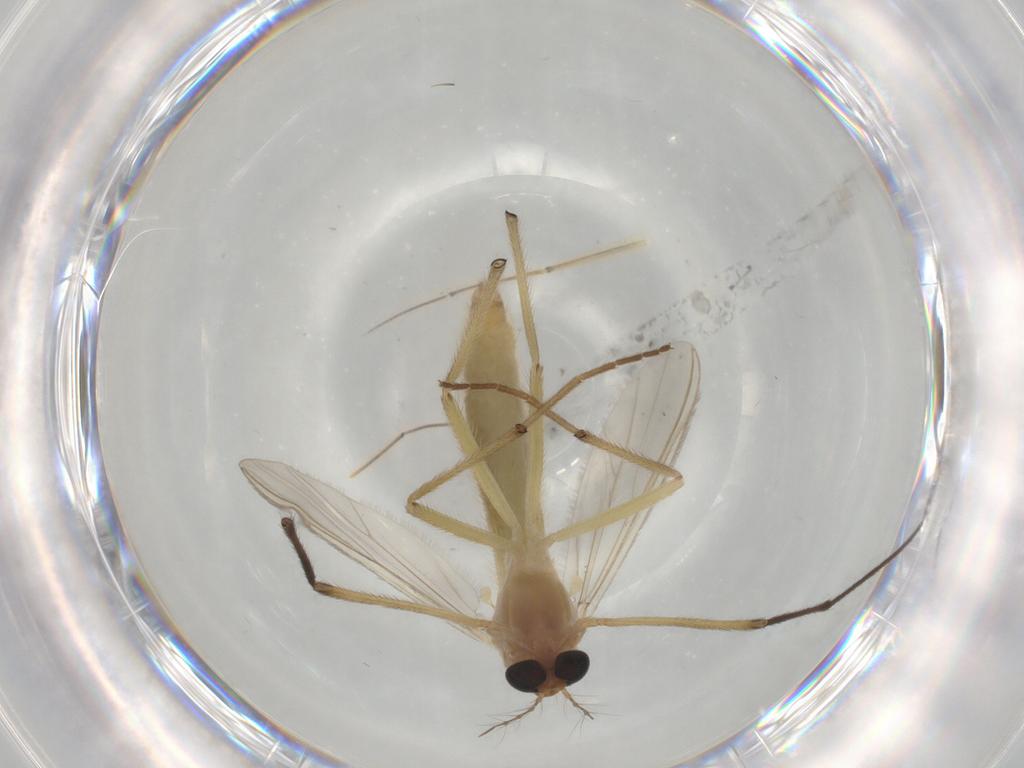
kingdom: Animalia
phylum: Arthropoda
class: Insecta
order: Diptera
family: Chironomidae
